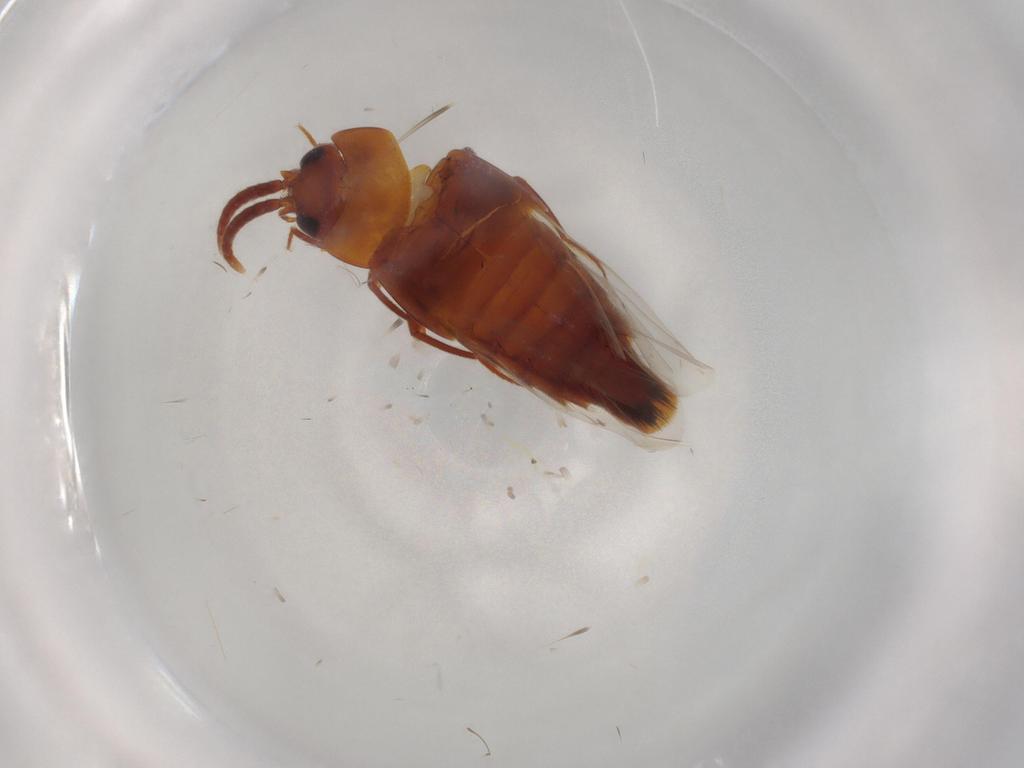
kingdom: Animalia
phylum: Arthropoda
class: Insecta
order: Coleoptera
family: Staphylinidae
